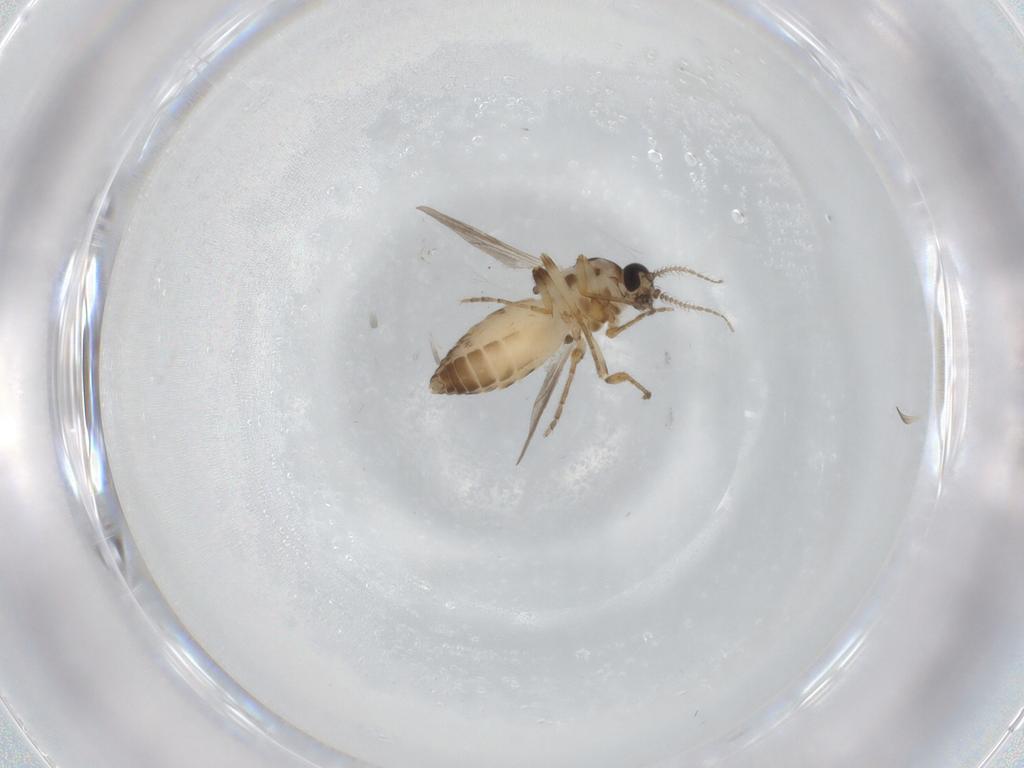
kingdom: Animalia
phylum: Arthropoda
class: Insecta
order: Diptera
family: Ceratopogonidae
